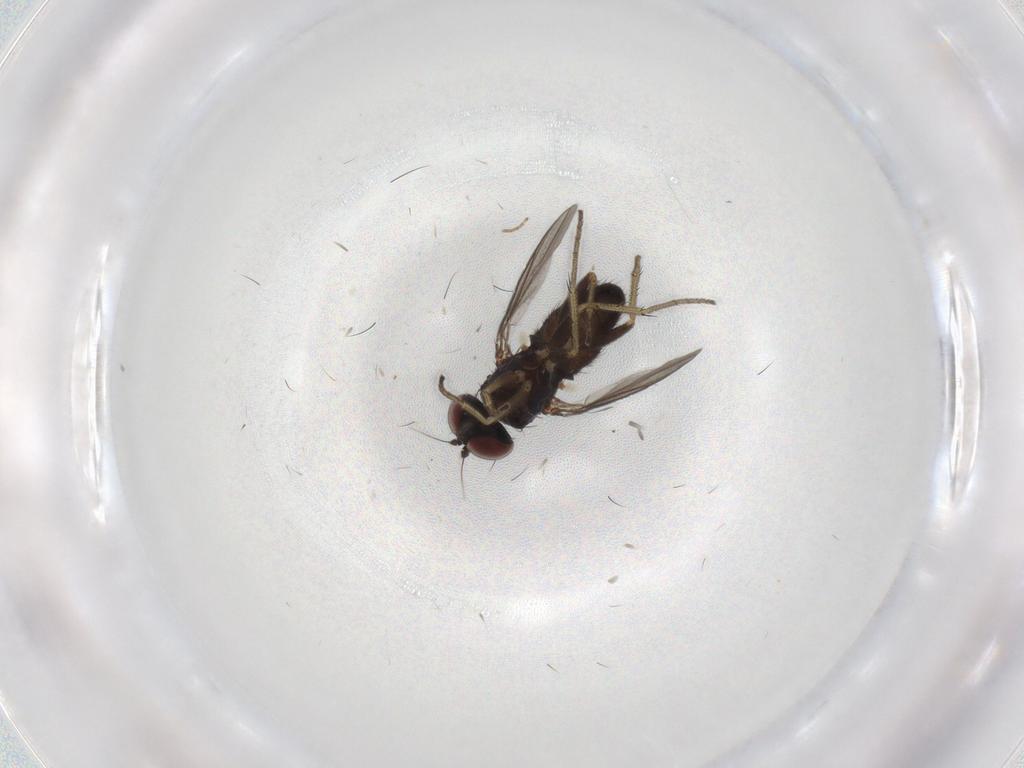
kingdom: Animalia
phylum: Arthropoda
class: Insecta
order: Diptera
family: Sciaridae
